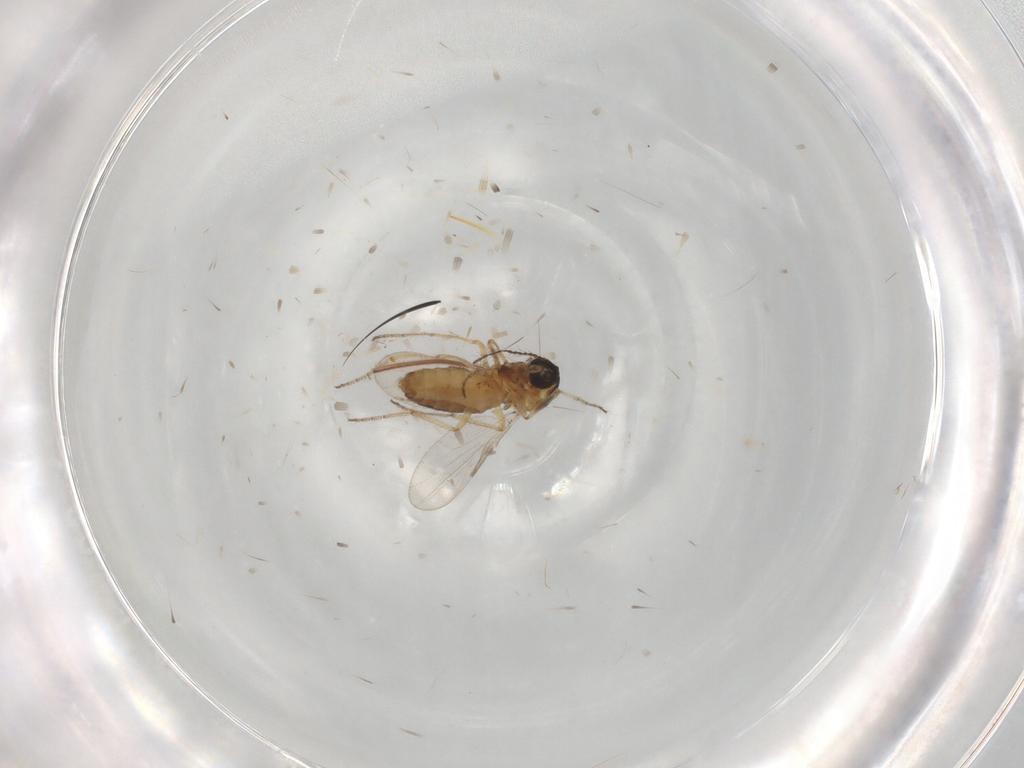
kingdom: Animalia
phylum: Arthropoda
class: Insecta
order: Diptera
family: Ceratopogonidae
